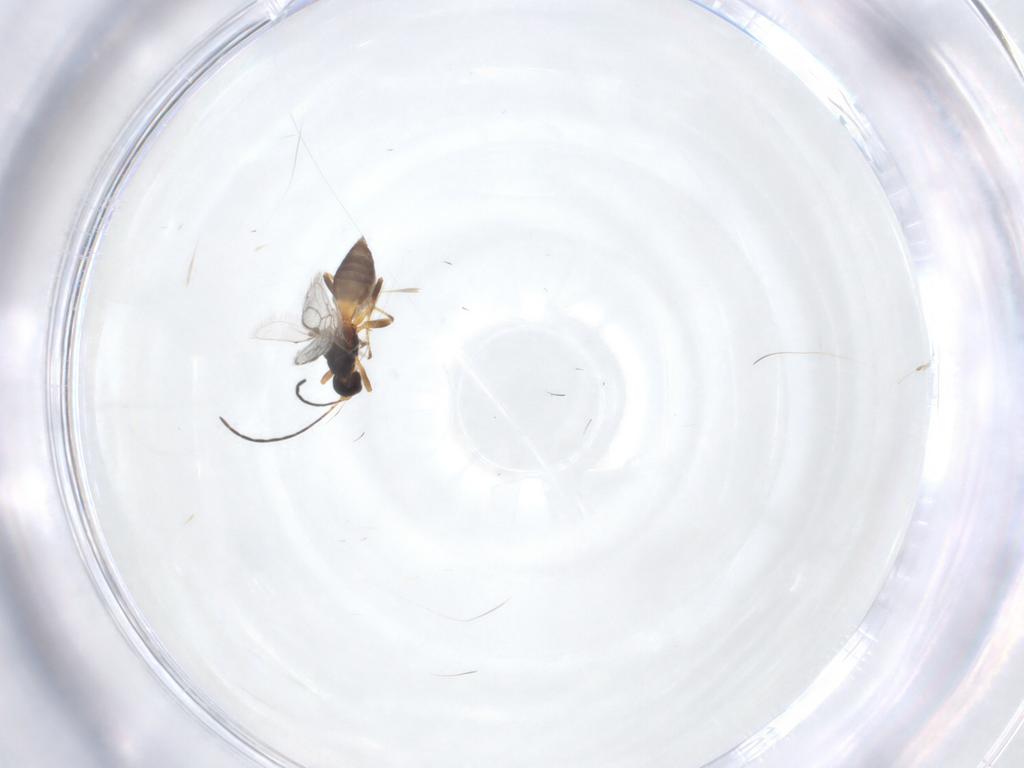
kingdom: Animalia
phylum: Arthropoda
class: Insecta
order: Hymenoptera
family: Braconidae
